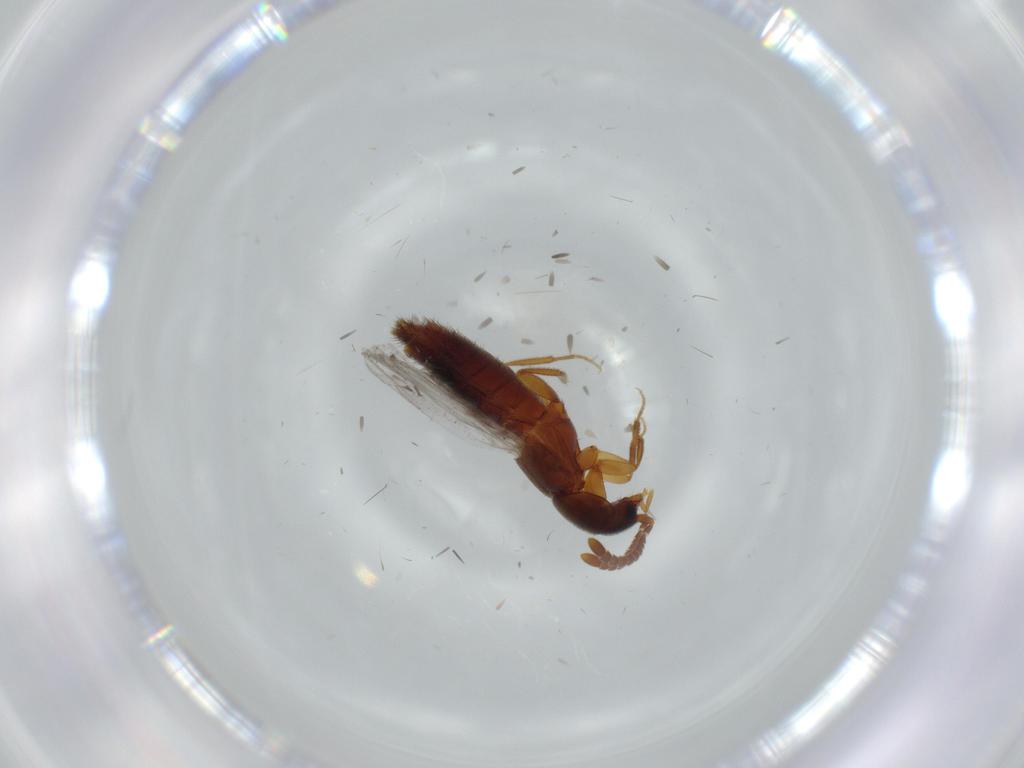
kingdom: Animalia
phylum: Arthropoda
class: Insecta
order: Coleoptera
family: Staphylinidae
